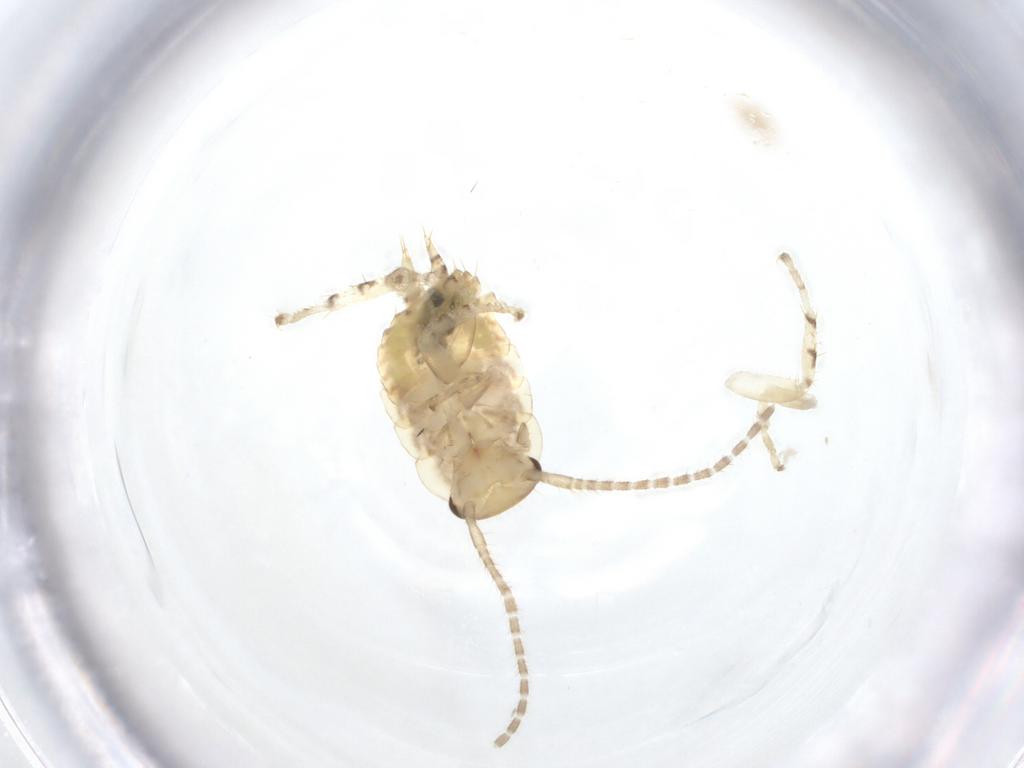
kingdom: Animalia
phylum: Arthropoda
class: Insecta
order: Blattodea
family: Ectobiidae
